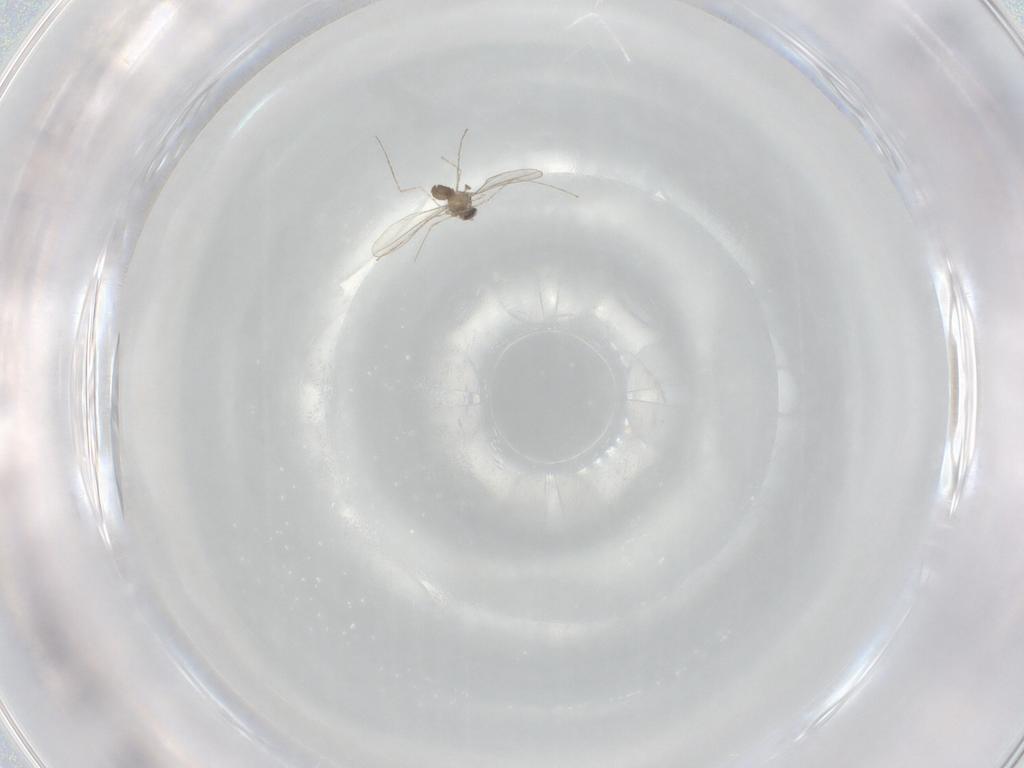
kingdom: Animalia
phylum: Arthropoda
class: Insecta
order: Diptera
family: Cecidomyiidae
